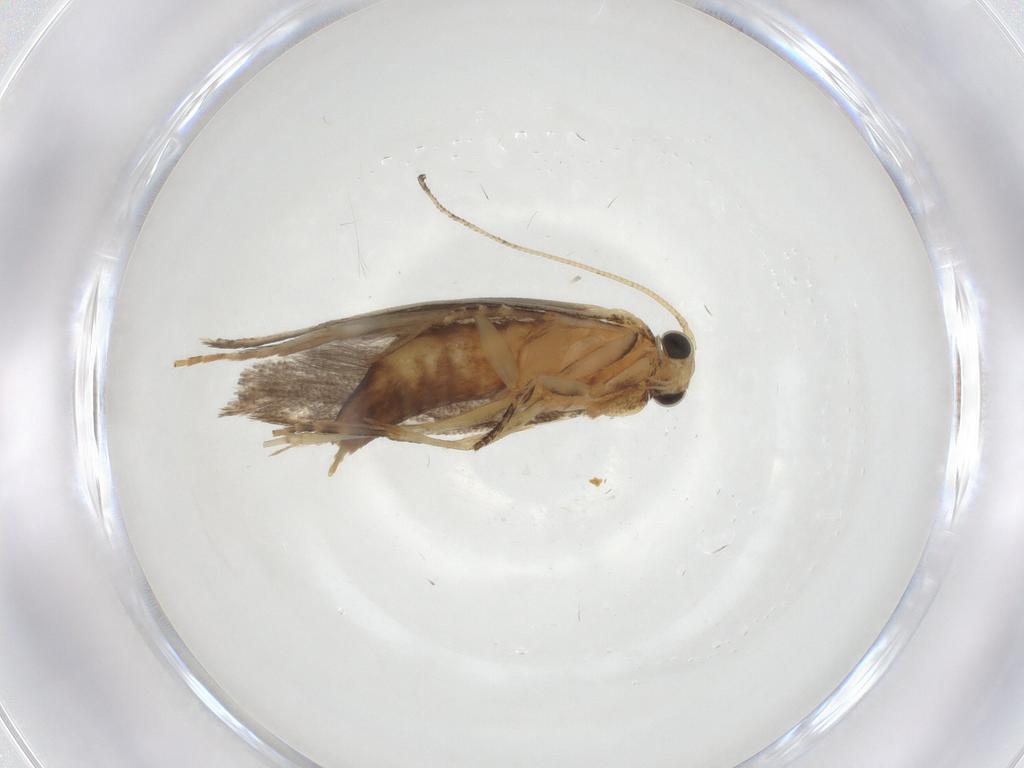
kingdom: Animalia
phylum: Arthropoda
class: Insecta
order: Lepidoptera
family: Tineidae
